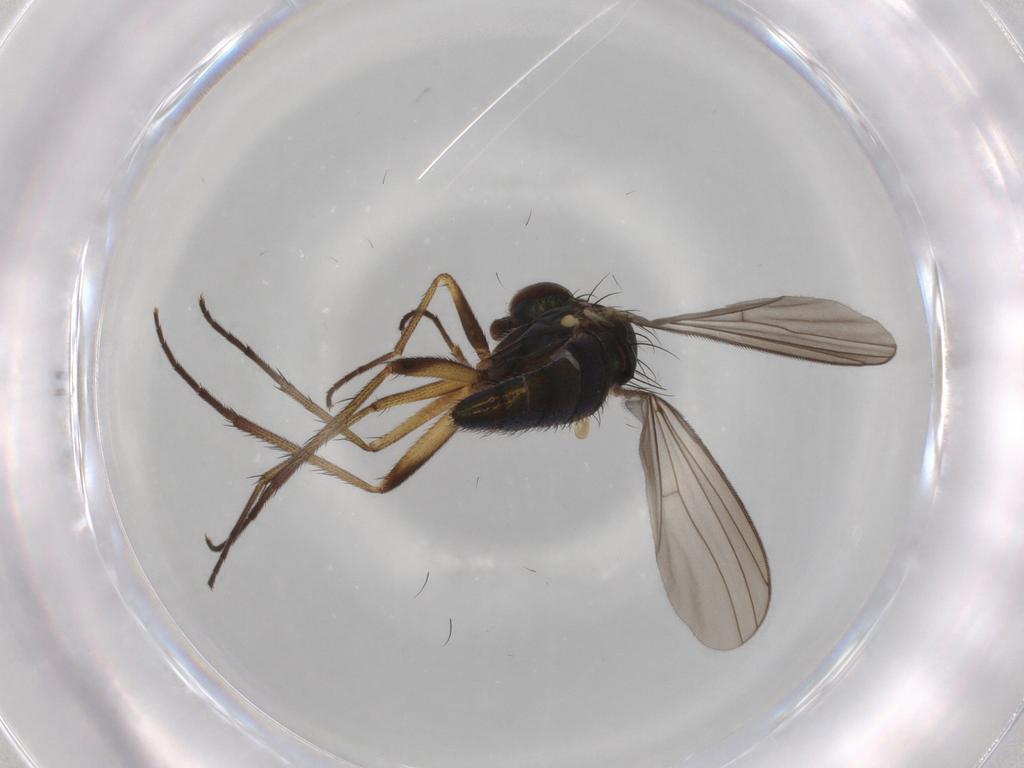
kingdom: Animalia
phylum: Arthropoda
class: Insecta
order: Diptera
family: Dolichopodidae
